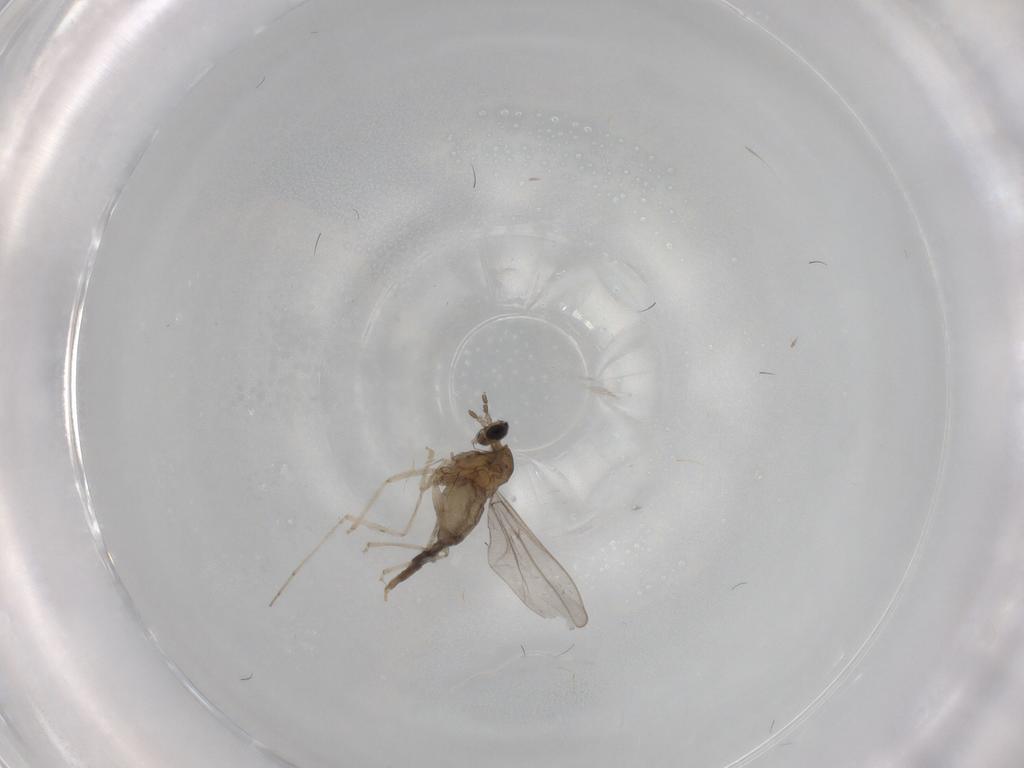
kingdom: Animalia
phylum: Arthropoda
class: Insecta
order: Diptera
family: Cecidomyiidae
